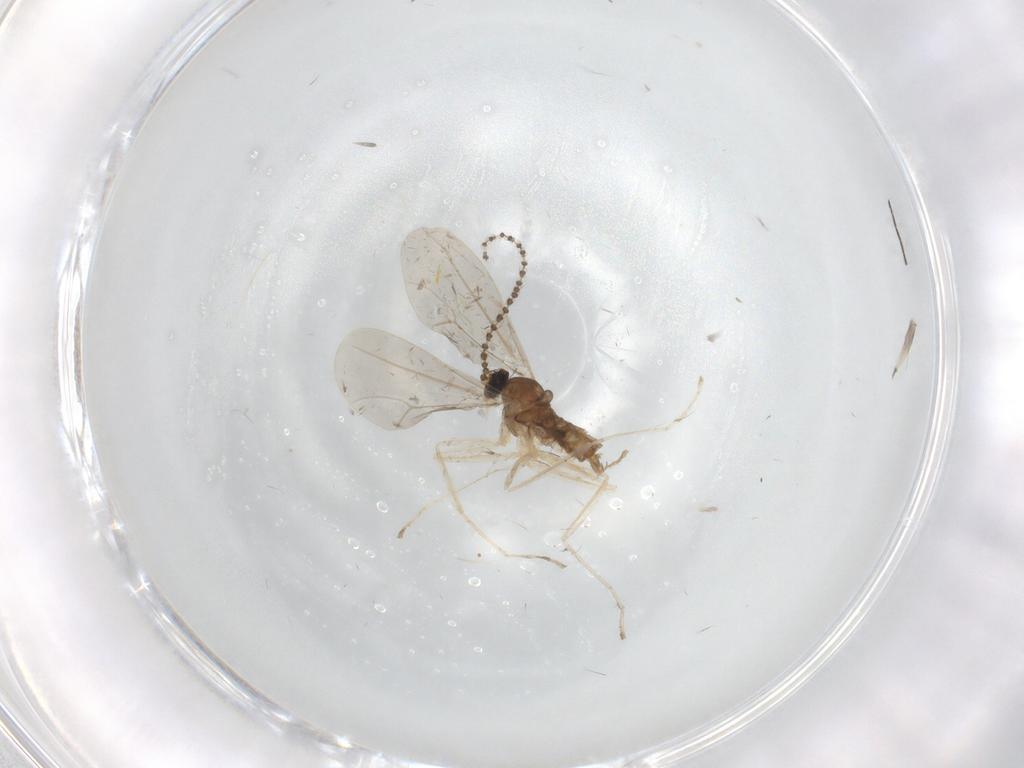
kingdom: Animalia
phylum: Arthropoda
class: Insecta
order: Diptera
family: Cecidomyiidae
